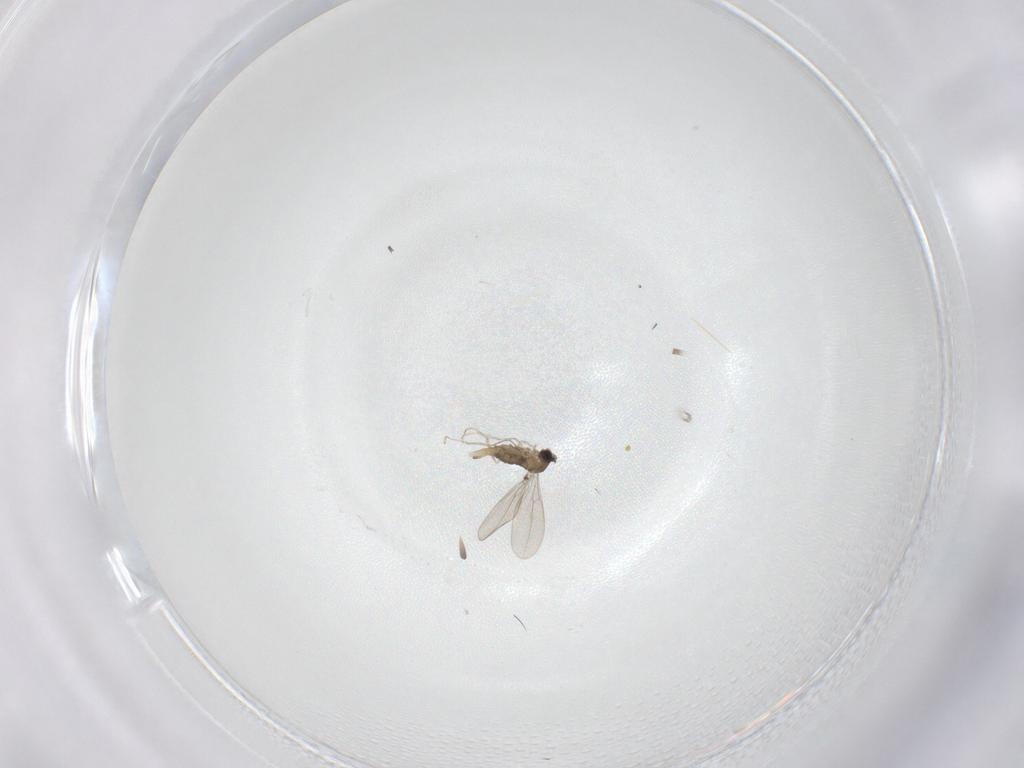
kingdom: Animalia
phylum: Arthropoda
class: Insecta
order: Diptera
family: Cecidomyiidae
